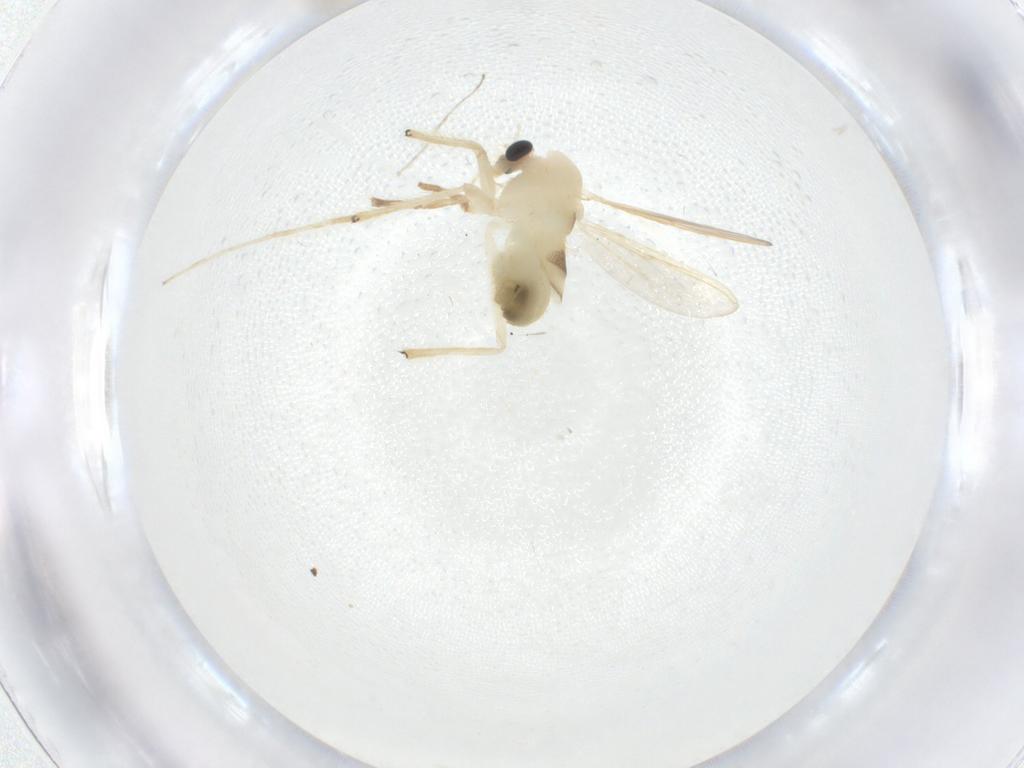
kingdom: Animalia
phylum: Arthropoda
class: Insecta
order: Diptera
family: Chironomidae
